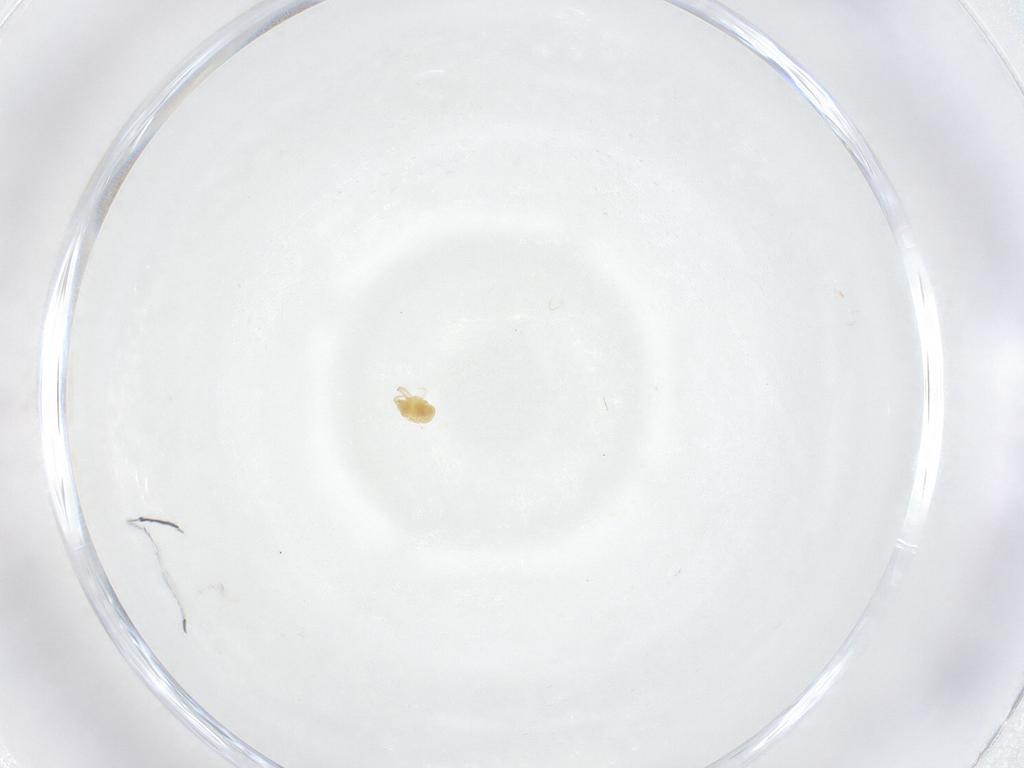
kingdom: Animalia
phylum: Arthropoda
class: Arachnida
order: Trombidiformes
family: Tetranychidae
